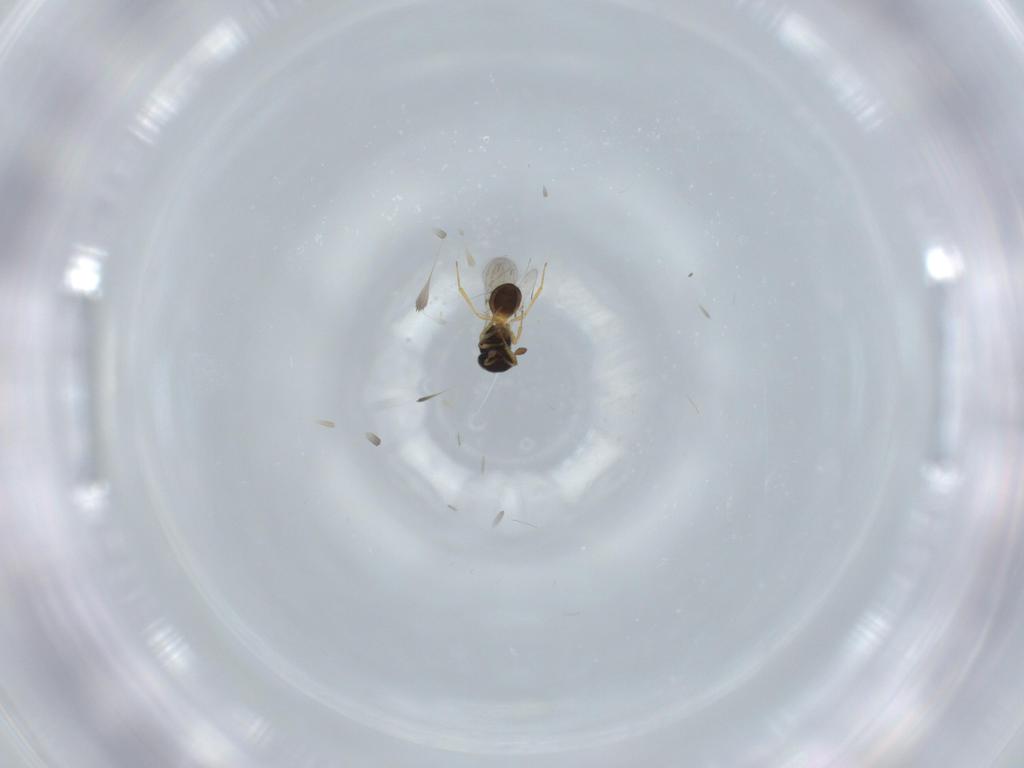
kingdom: Animalia
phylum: Arthropoda
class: Insecta
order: Hymenoptera
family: Scelionidae
